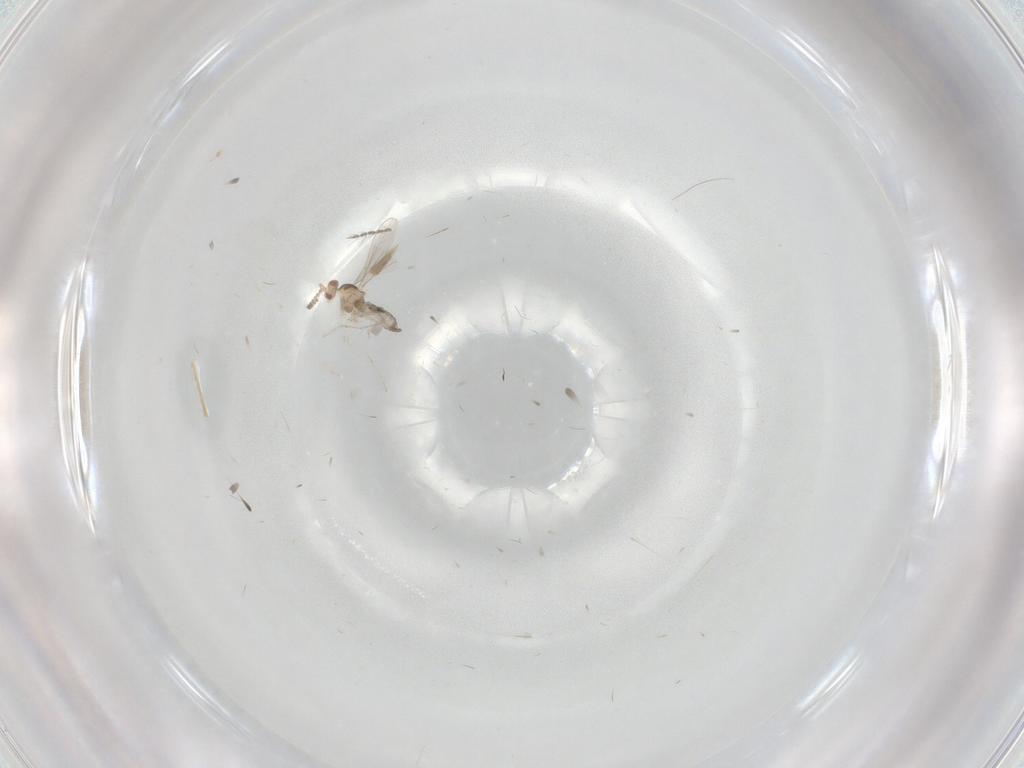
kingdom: Animalia
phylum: Arthropoda
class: Insecta
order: Diptera
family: Cecidomyiidae
